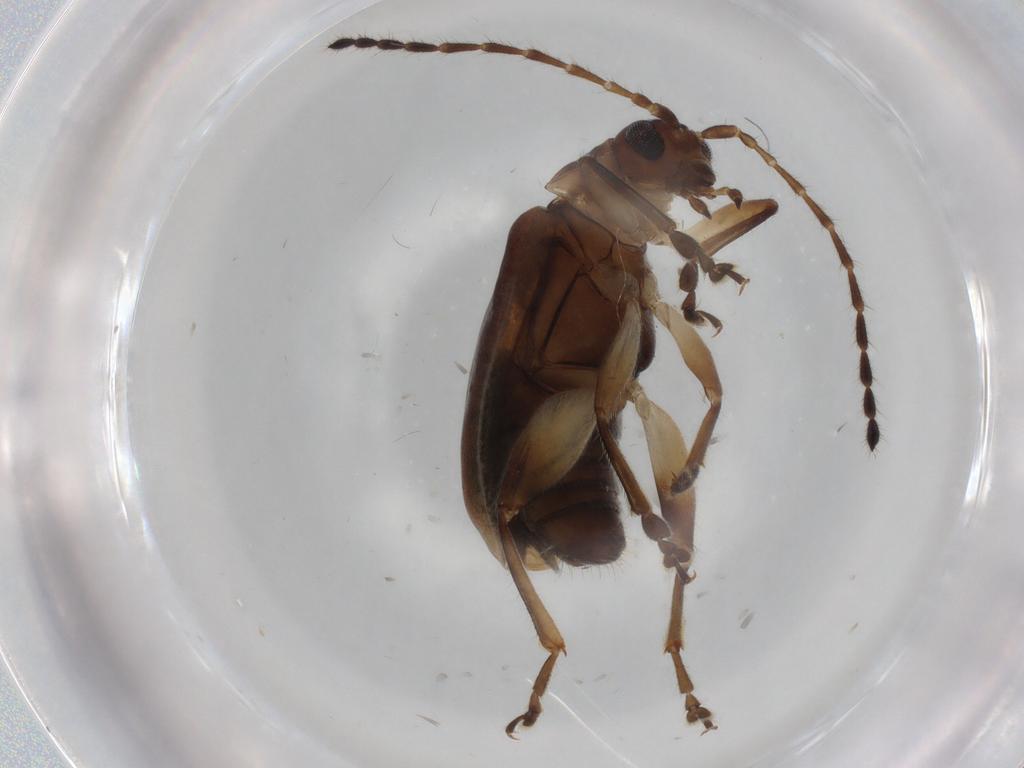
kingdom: Animalia
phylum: Arthropoda
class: Insecta
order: Coleoptera
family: Chrysomelidae
